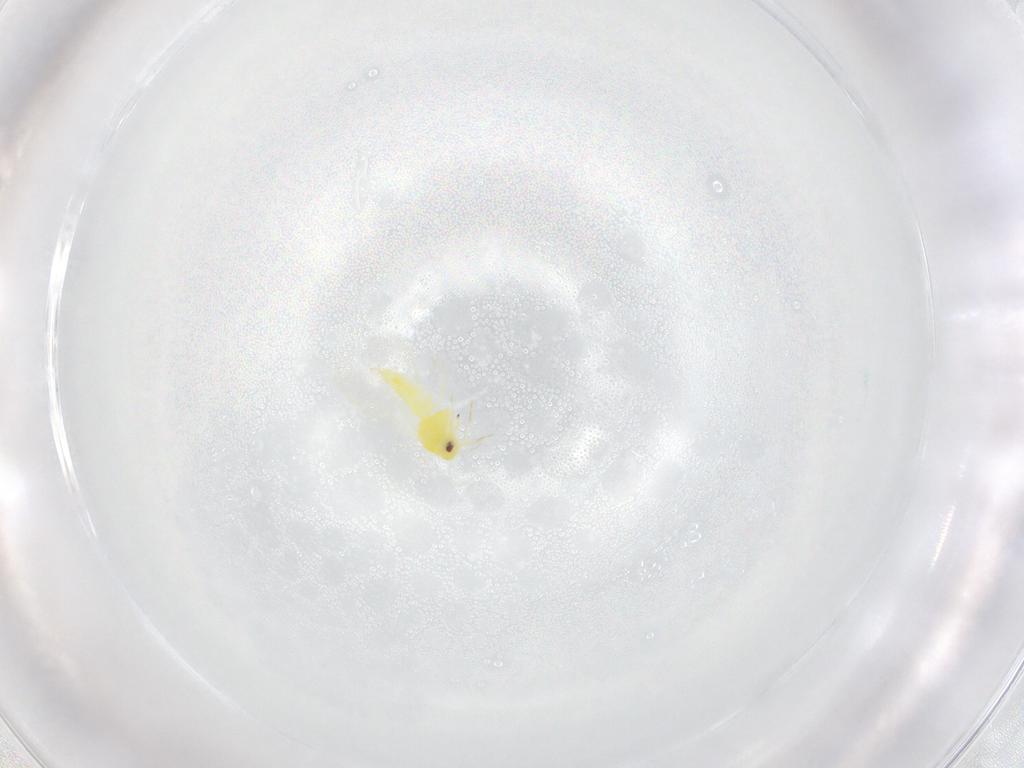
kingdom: Animalia
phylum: Arthropoda
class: Insecta
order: Hemiptera
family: Aleyrodidae
